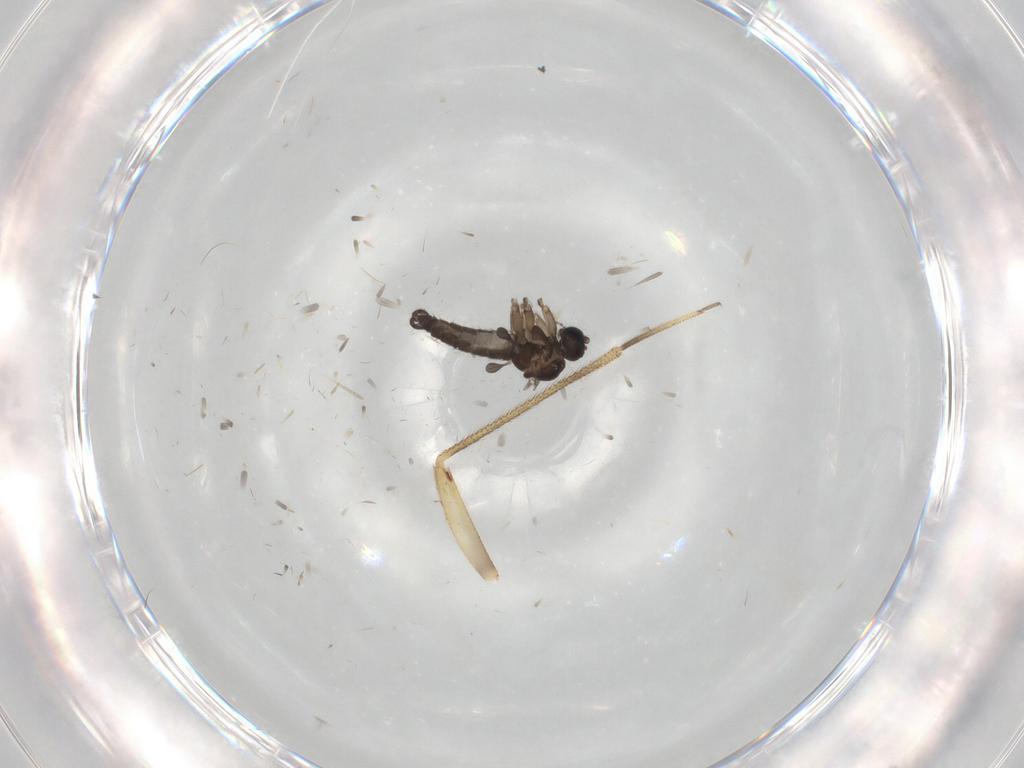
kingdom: Animalia
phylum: Arthropoda
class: Insecta
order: Diptera
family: Sciaridae
